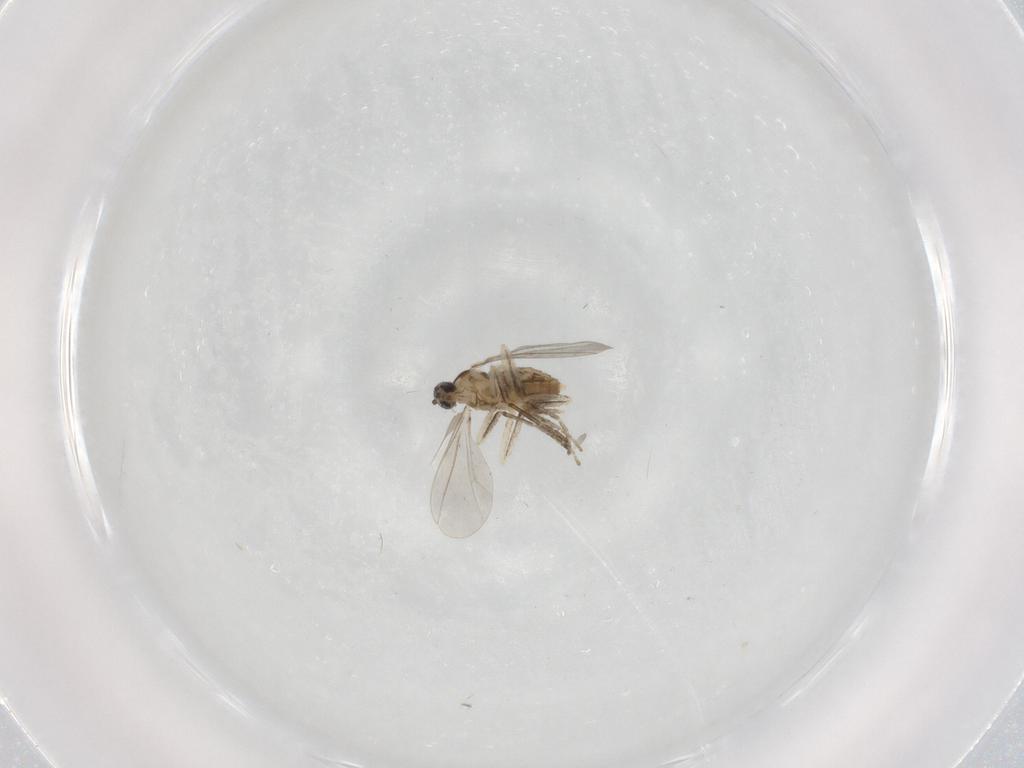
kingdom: Animalia
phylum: Arthropoda
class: Insecta
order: Diptera
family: Cecidomyiidae
